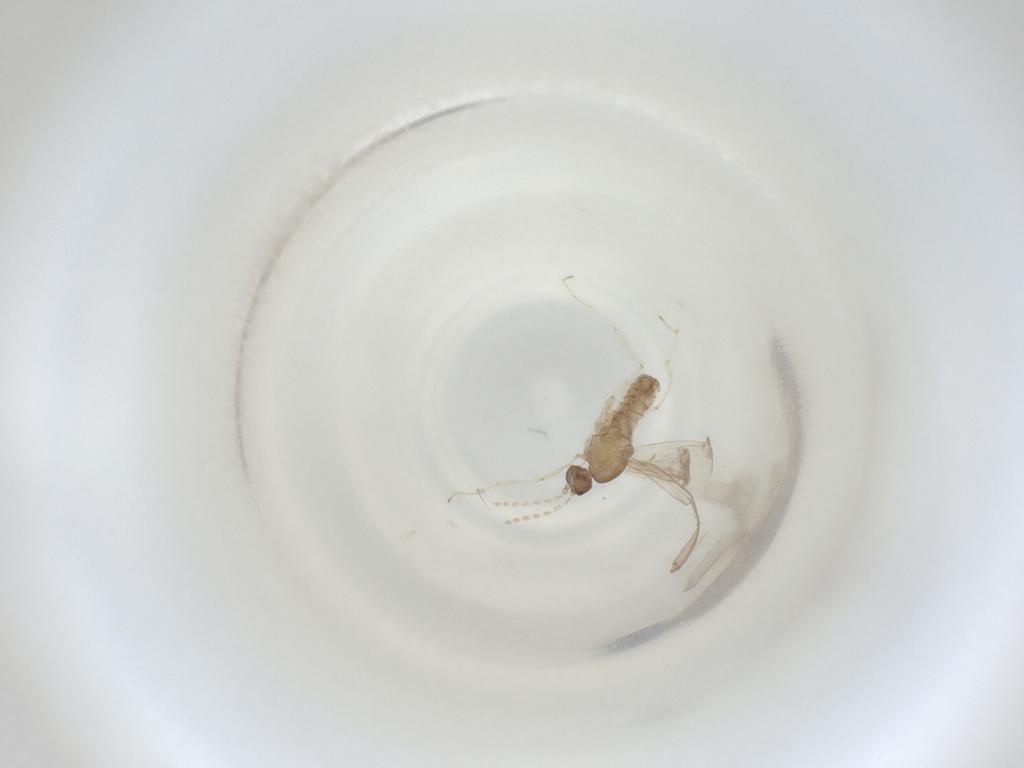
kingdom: Animalia
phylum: Arthropoda
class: Insecta
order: Diptera
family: Cecidomyiidae
